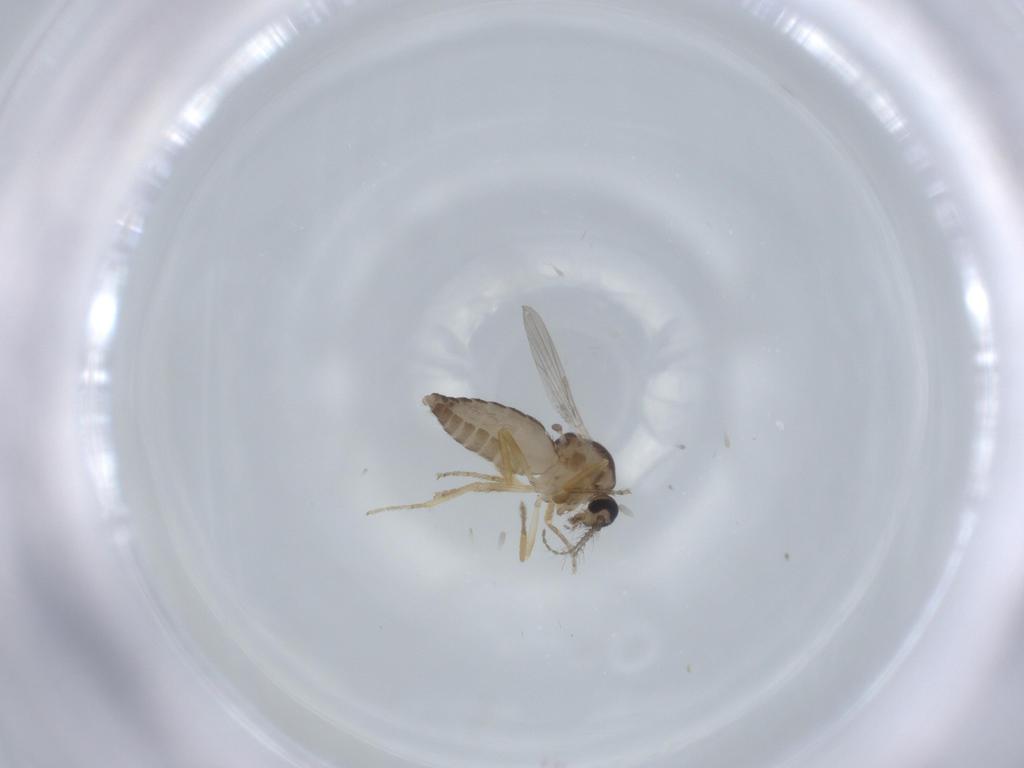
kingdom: Animalia
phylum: Arthropoda
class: Insecta
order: Diptera
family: Ceratopogonidae
